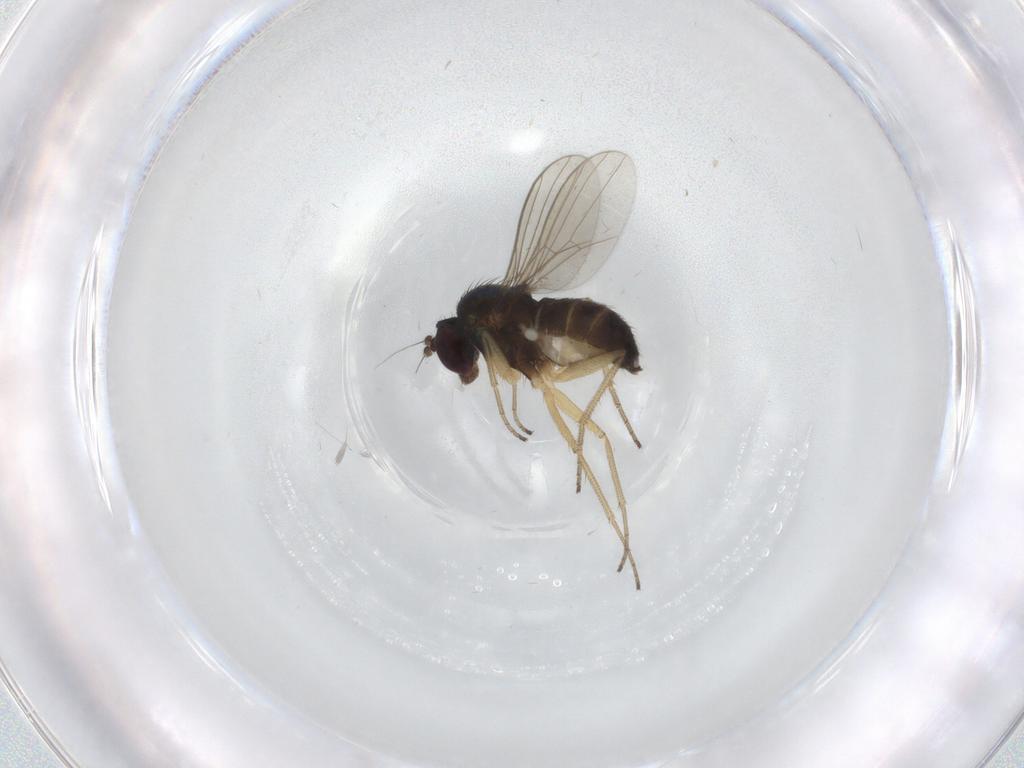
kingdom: Animalia
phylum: Arthropoda
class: Insecta
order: Diptera
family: Dolichopodidae
